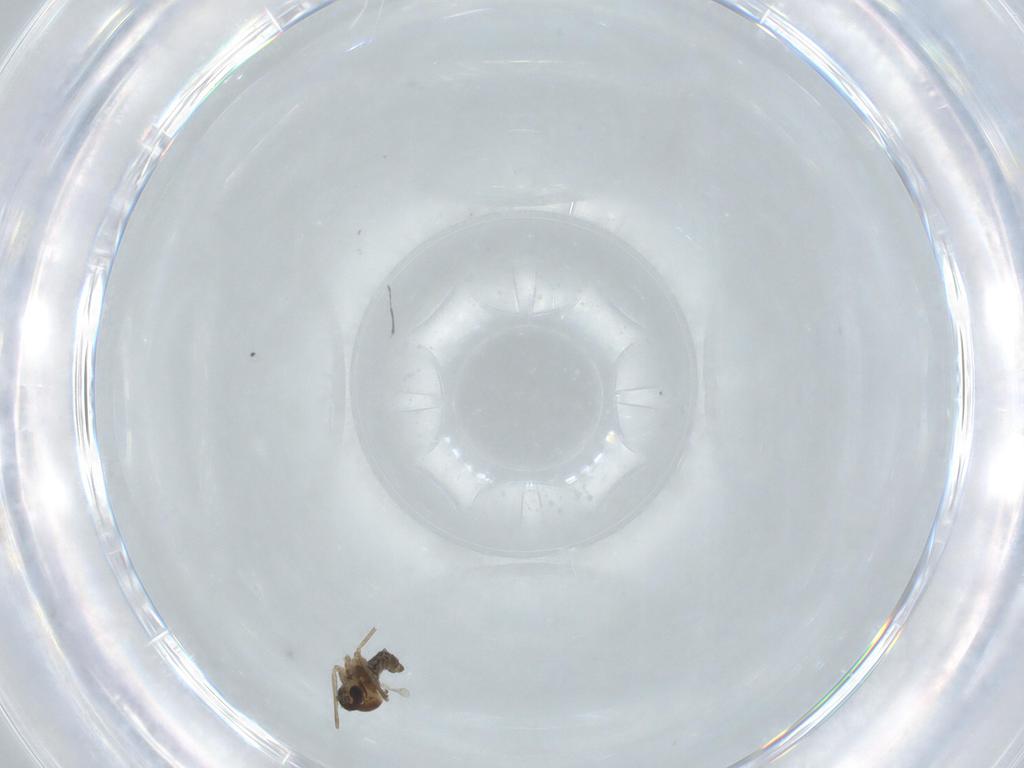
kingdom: Animalia
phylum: Arthropoda
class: Insecta
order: Diptera
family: Cecidomyiidae
